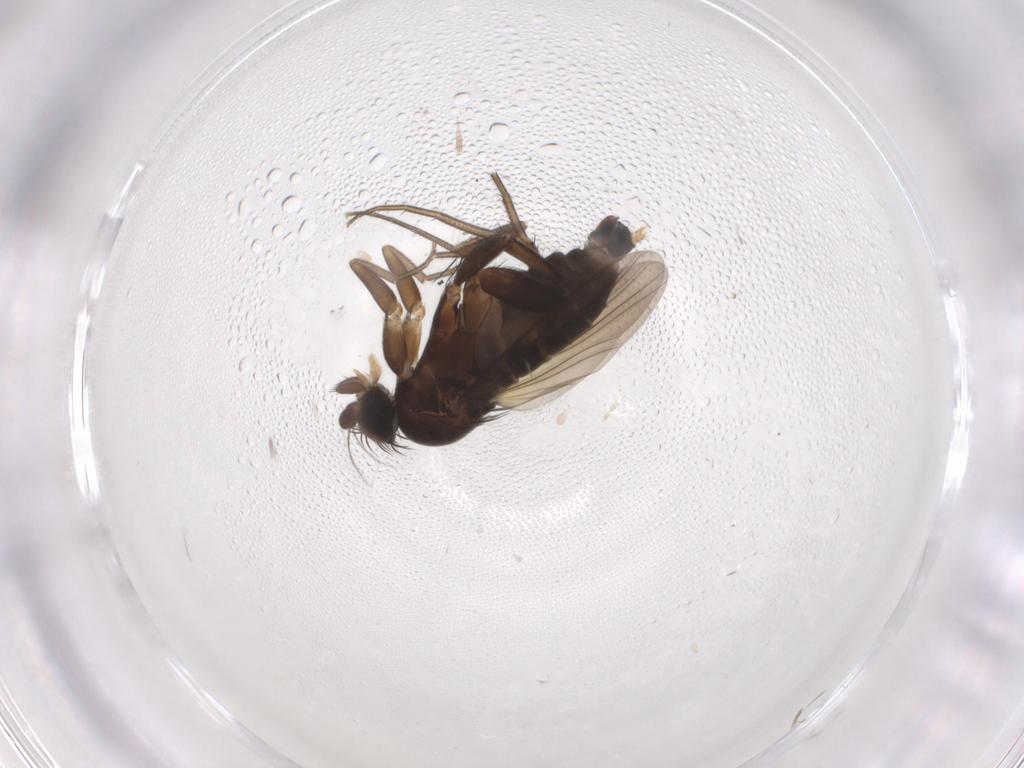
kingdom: Animalia
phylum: Arthropoda
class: Insecta
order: Diptera
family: Phoridae
